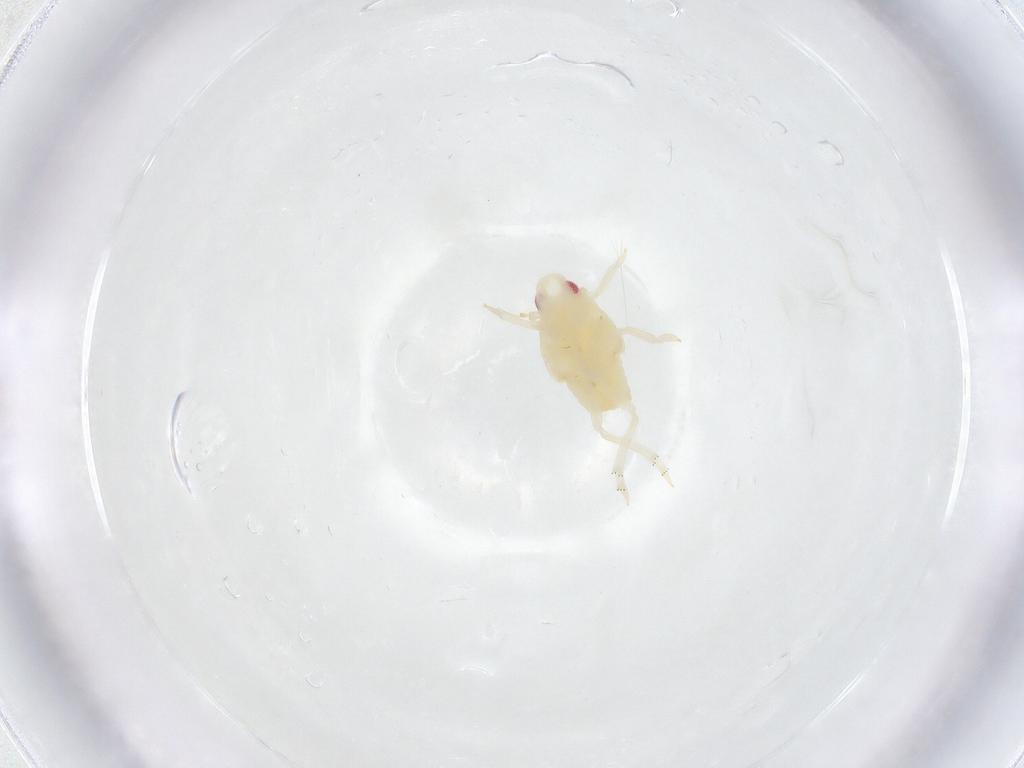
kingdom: Animalia
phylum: Arthropoda
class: Insecta
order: Hemiptera
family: Flatidae
